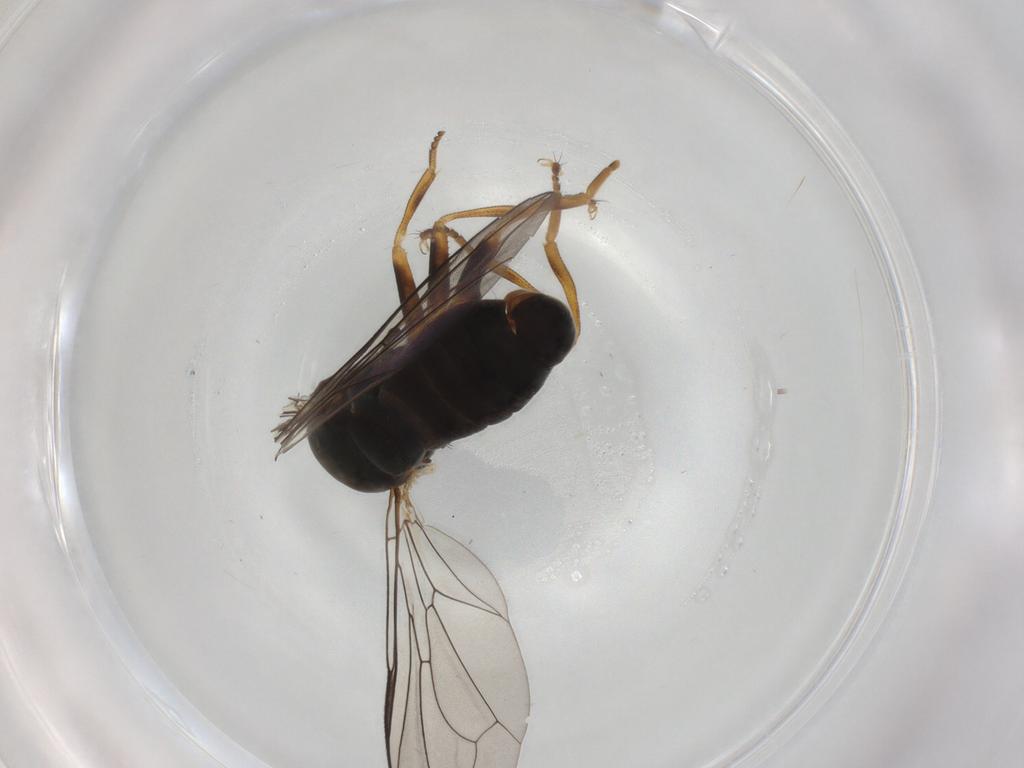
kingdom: Animalia
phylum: Arthropoda
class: Insecta
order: Diptera
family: Pipunculidae
